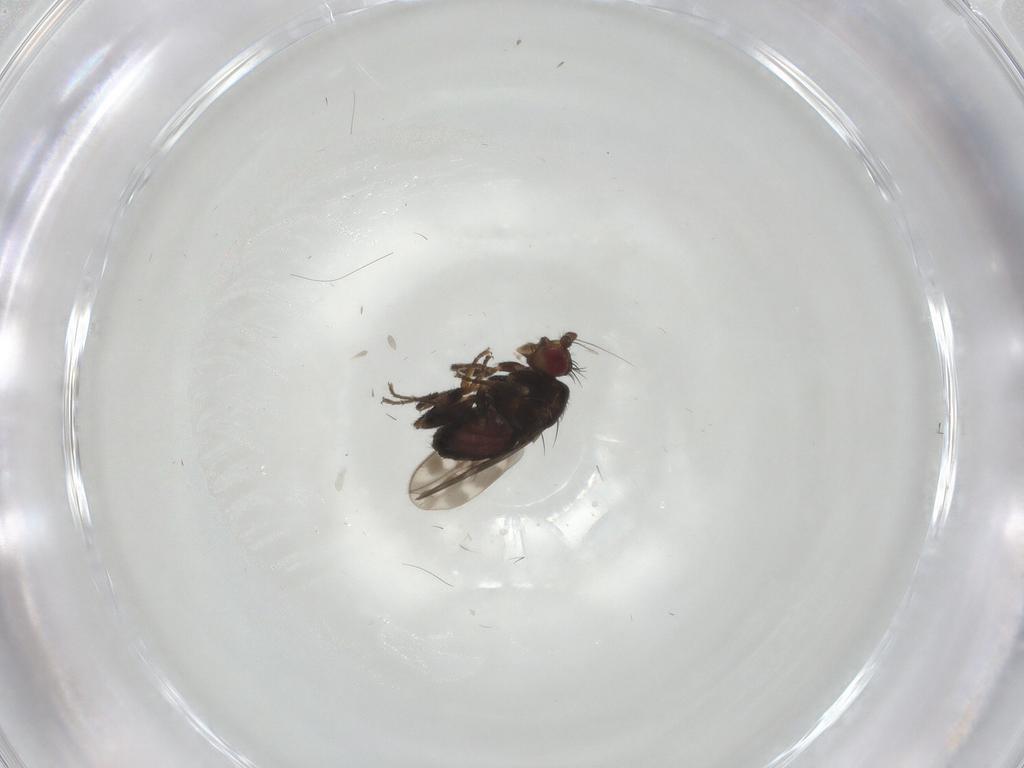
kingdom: Animalia
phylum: Arthropoda
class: Insecta
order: Diptera
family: Sphaeroceridae
